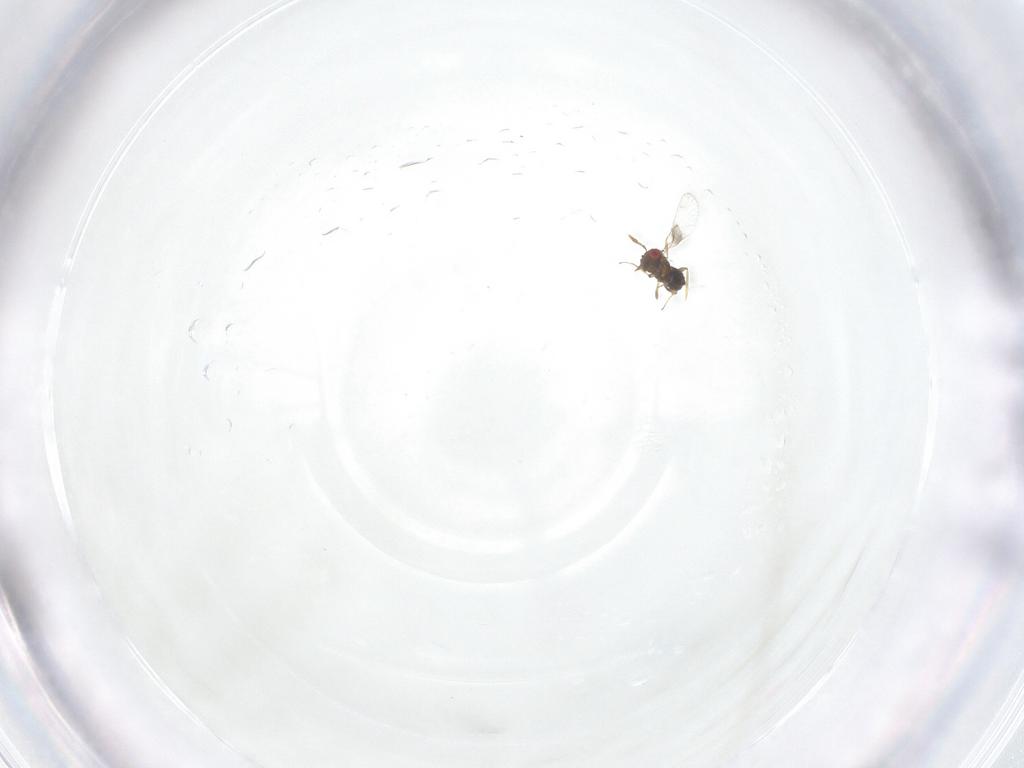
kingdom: Animalia
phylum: Arthropoda
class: Insecta
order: Hymenoptera
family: Trichogrammatidae
